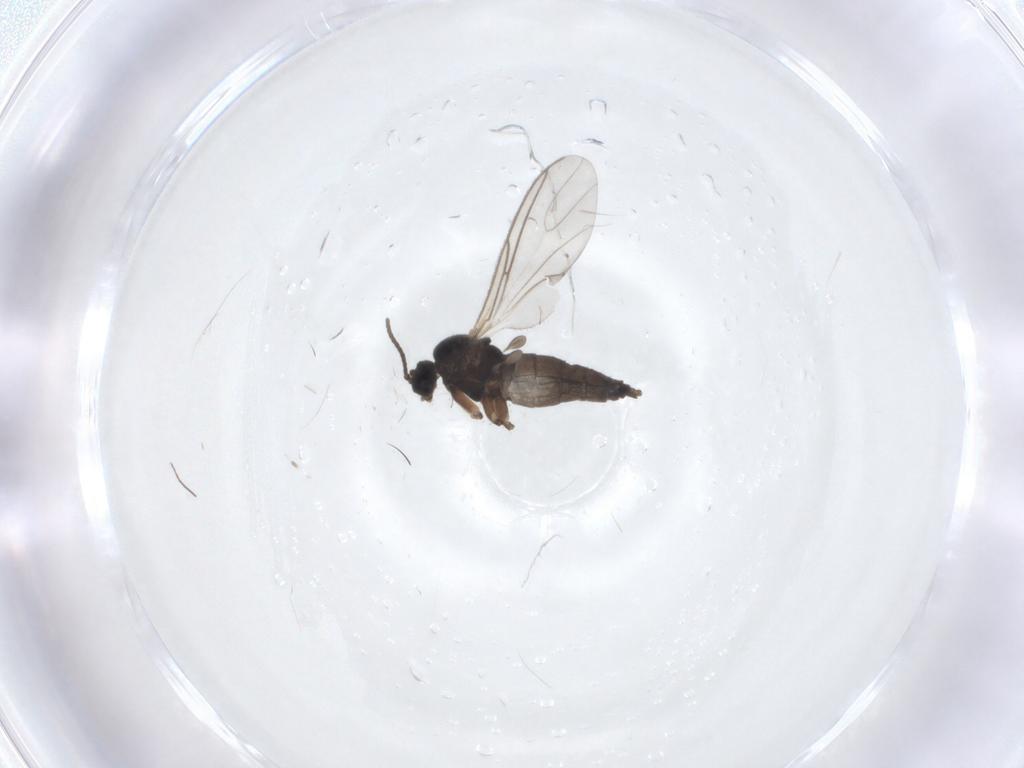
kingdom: Animalia
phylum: Arthropoda
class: Insecta
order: Diptera
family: Sciaridae
